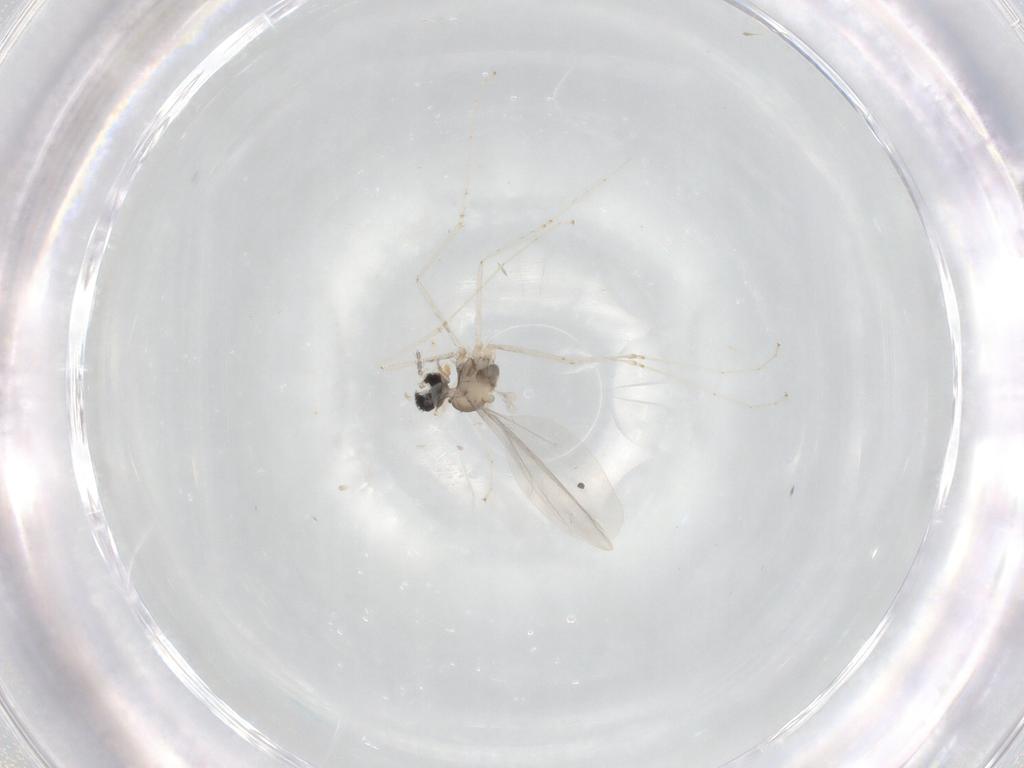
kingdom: Animalia
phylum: Arthropoda
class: Insecta
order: Diptera
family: Cecidomyiidae
